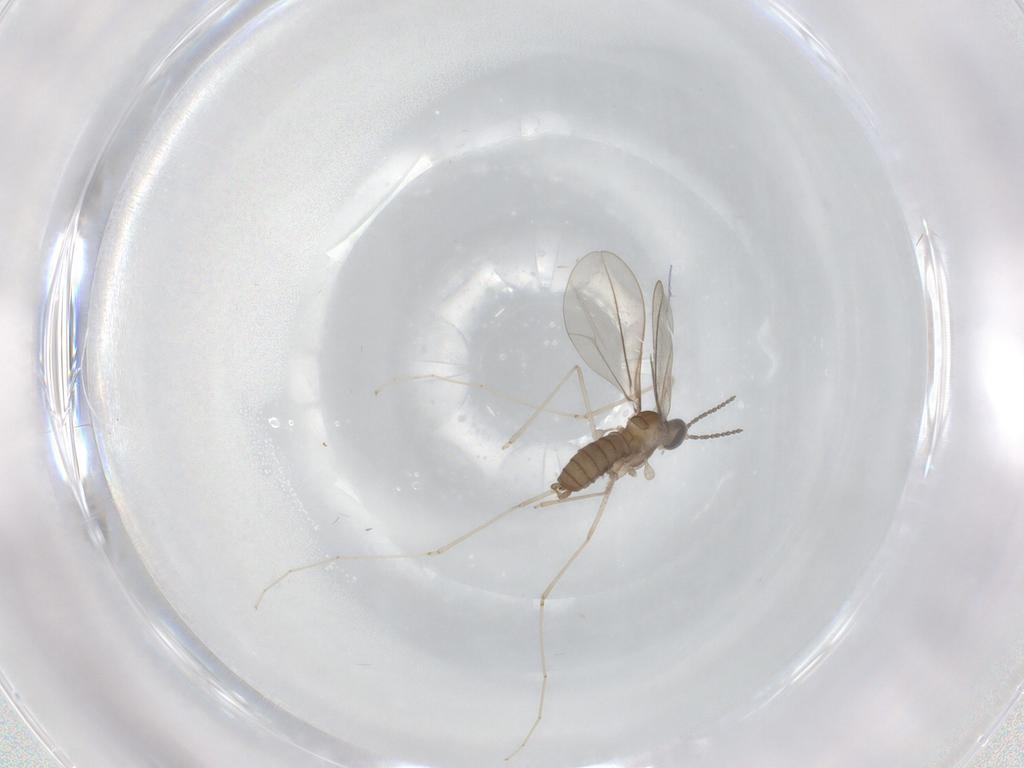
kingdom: Animalia
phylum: Arthropoda
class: Insecta
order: Diptera
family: Cecidomyiidae
